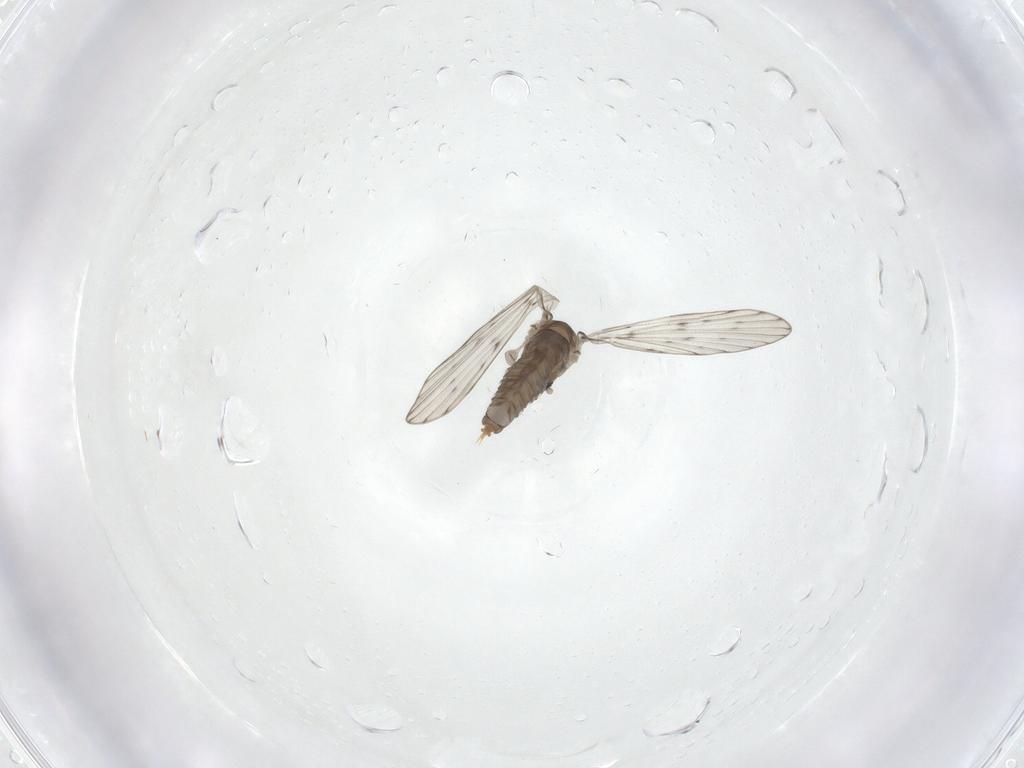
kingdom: Animalia
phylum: Arthropoda
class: Insecta
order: Diptera
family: Psychodidae
